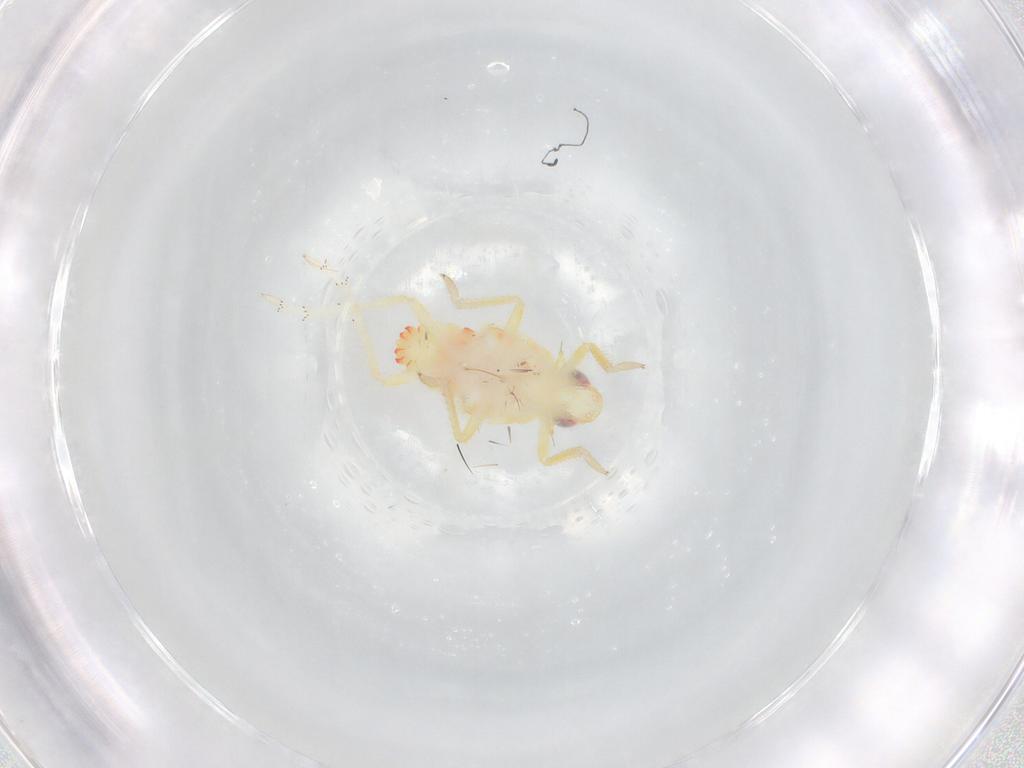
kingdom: Animalia
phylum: Arthropoda
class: Insecta
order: Hemiptera
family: Tropiduchidae
